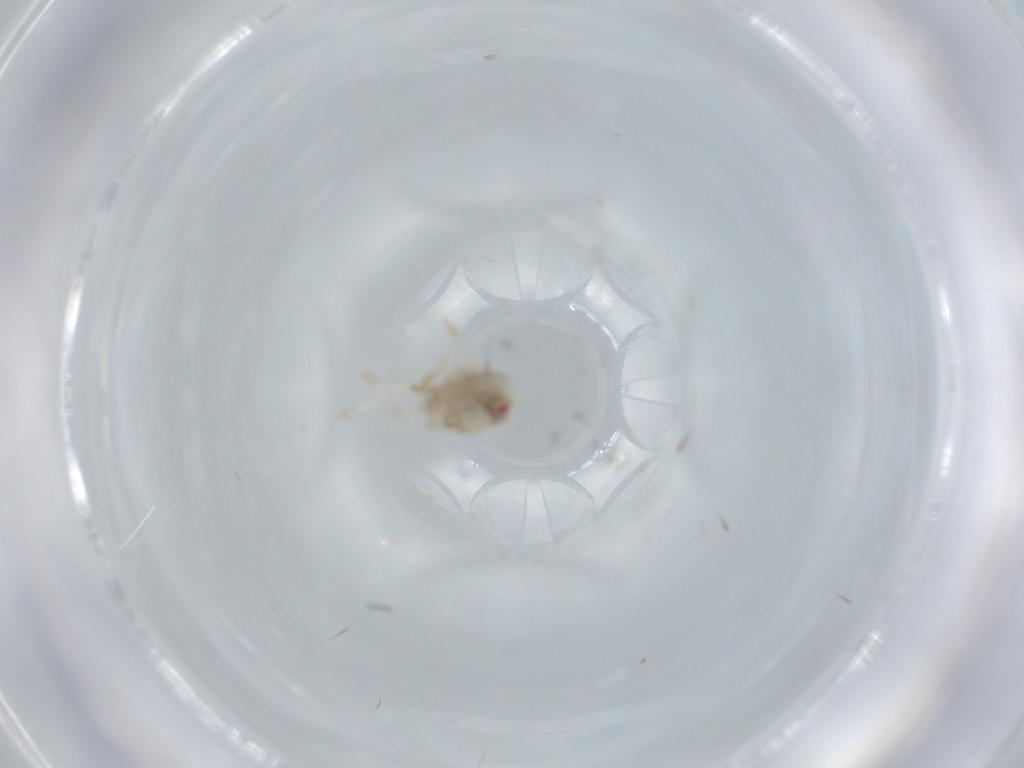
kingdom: Animalia
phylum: Arthropoda
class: Insecta
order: Hemiptera
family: Acanaloniidae
